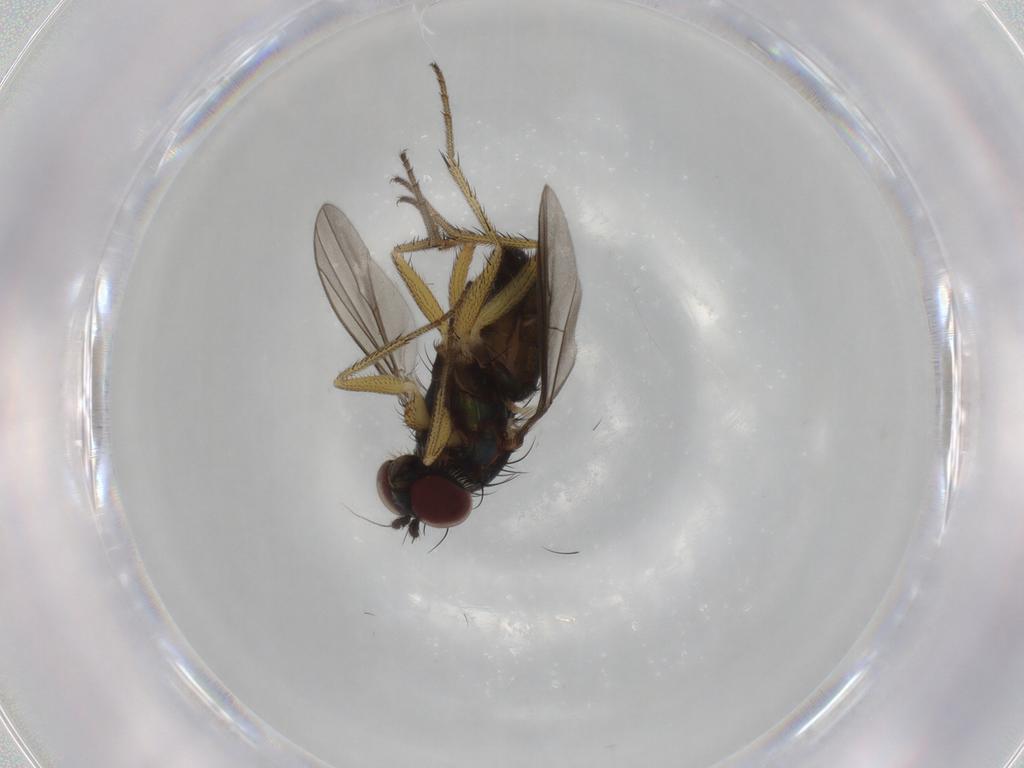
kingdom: Animalia
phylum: Arthropoda
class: Insecta
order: Diptera
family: Dolichopodidae
